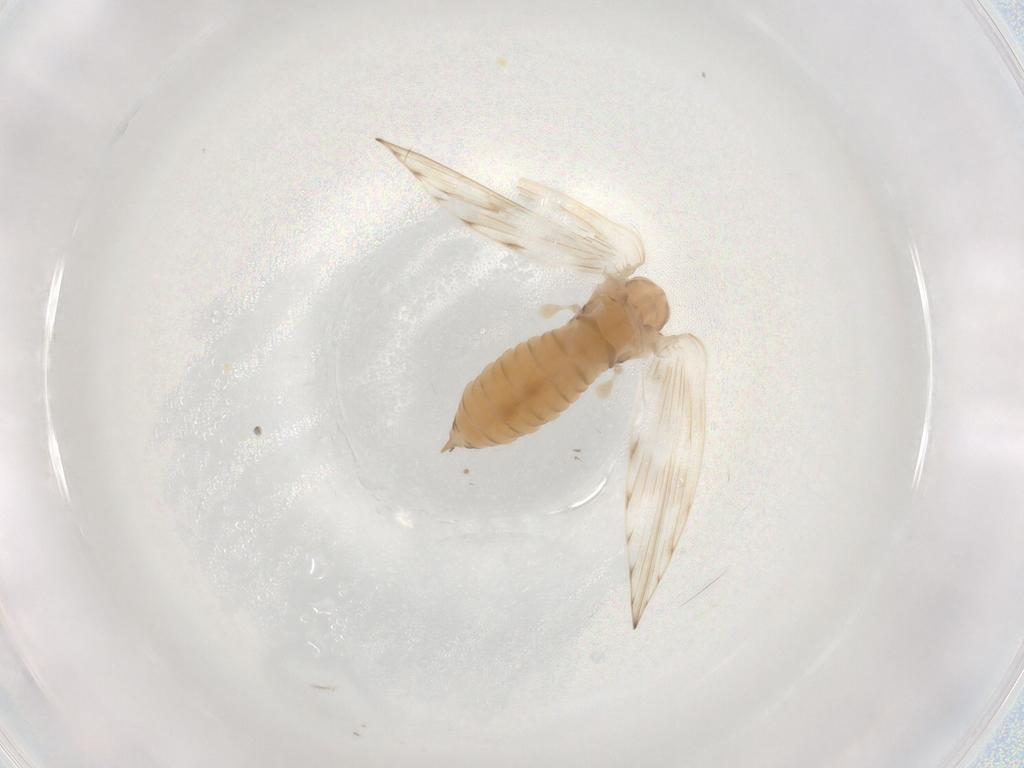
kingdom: Animalia
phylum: Arthropoda
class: Insecta
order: Diptera
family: Psychodidae
